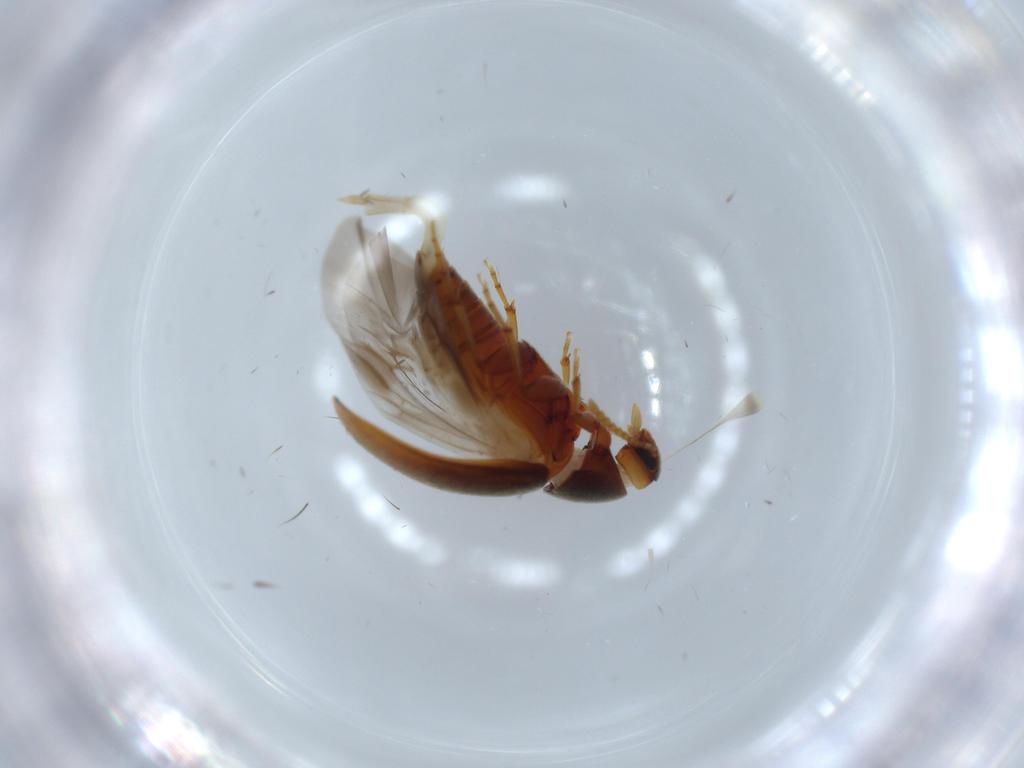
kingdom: Animalia
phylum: Arthropoda
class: Insecta
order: Coleoptera
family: Scraptiidae
